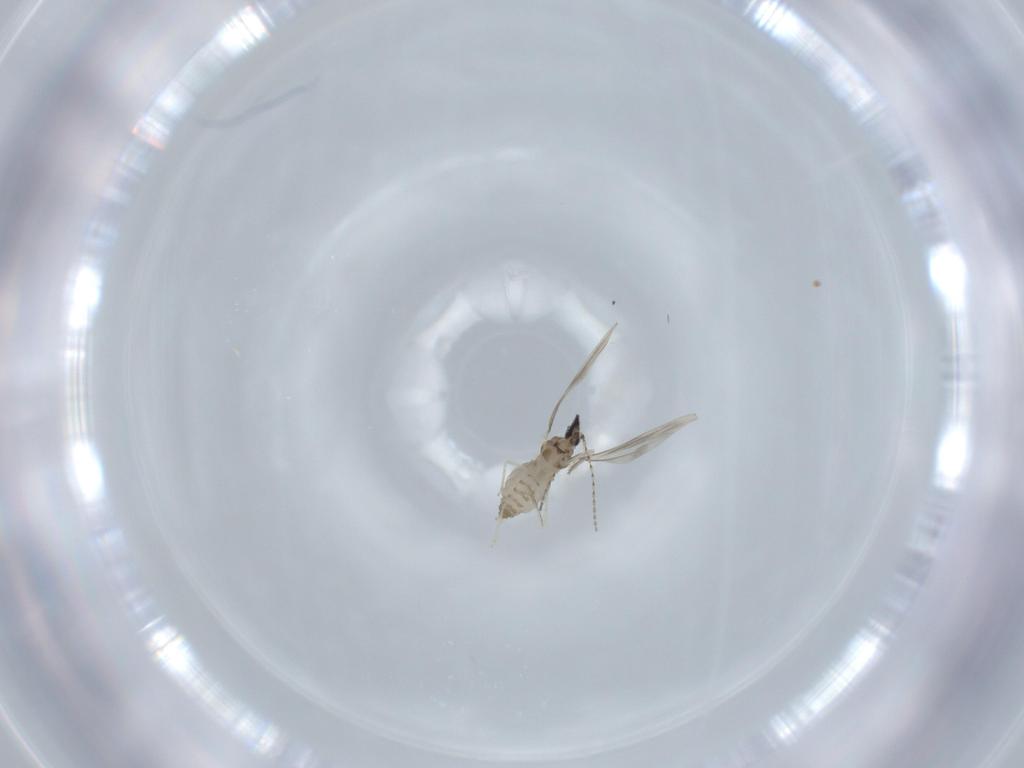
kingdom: Animalia
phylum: Arthropoda
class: Insecta
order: Diptera
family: Cecidomyiidae
